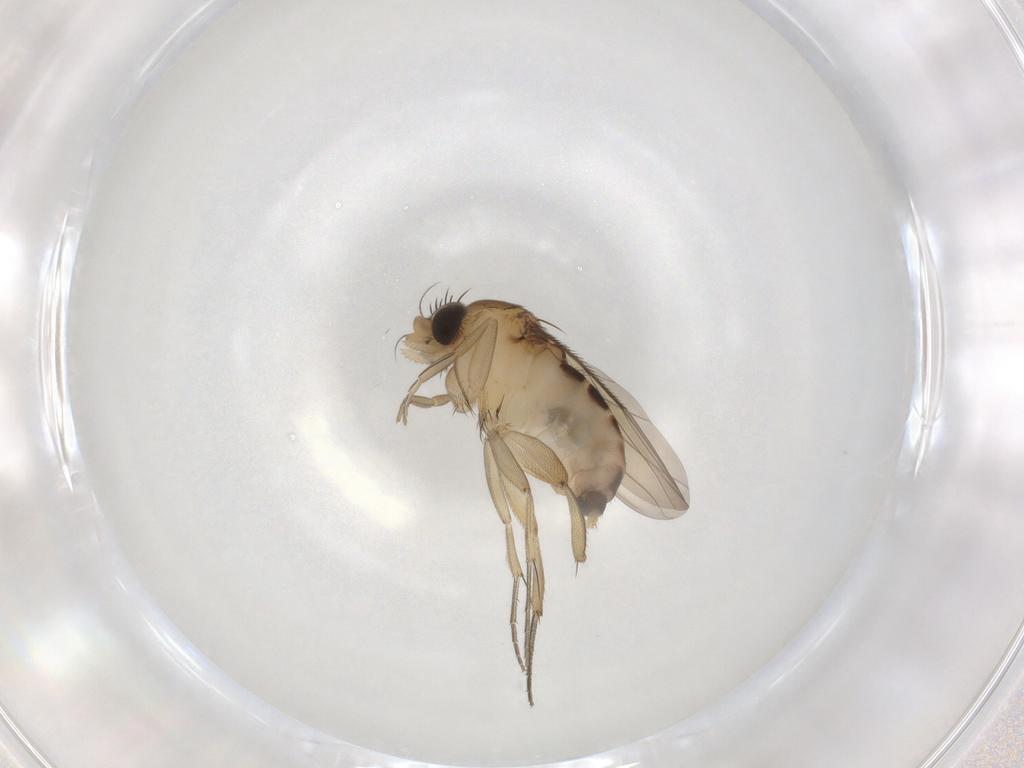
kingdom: Animalia
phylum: Arthropoda
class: Insecta
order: Diptera
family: Phoridae
